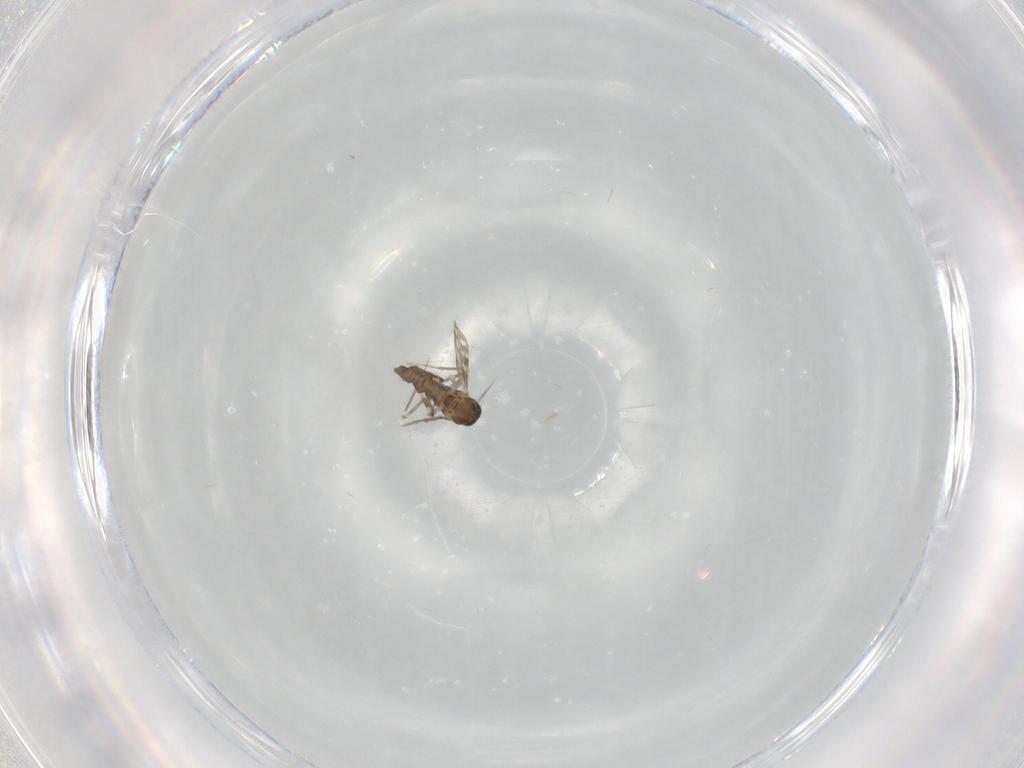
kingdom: Animalia
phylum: Arthropoda
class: Insecta
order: Diptera
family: Ceratopogonidae
